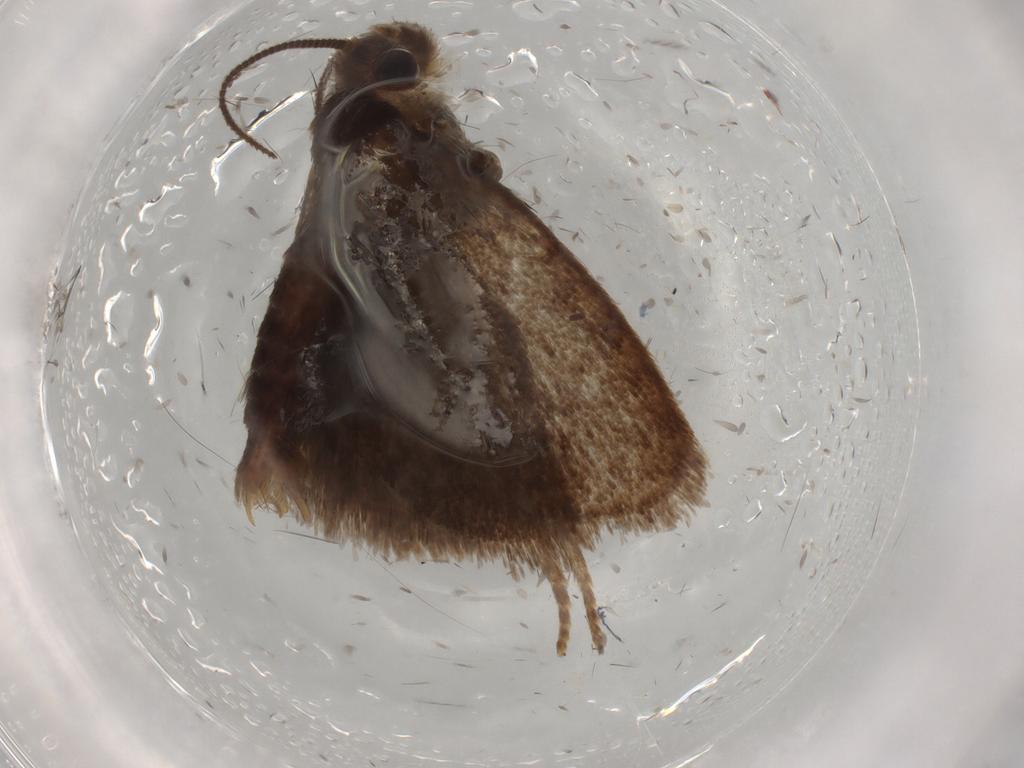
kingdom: Animalia
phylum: Arthropoda
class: Insecta
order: Lepidoptera
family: Tineidae
